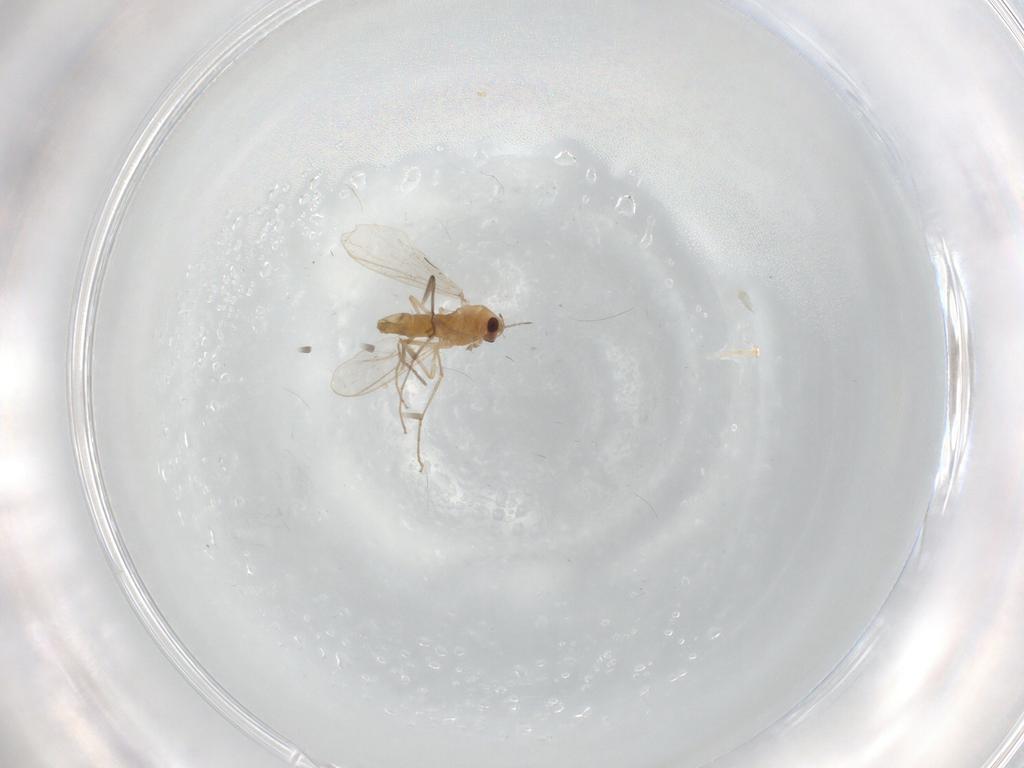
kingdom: Animalia
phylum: Arthropoda
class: Insecta
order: Diptera
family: Chironomidae
